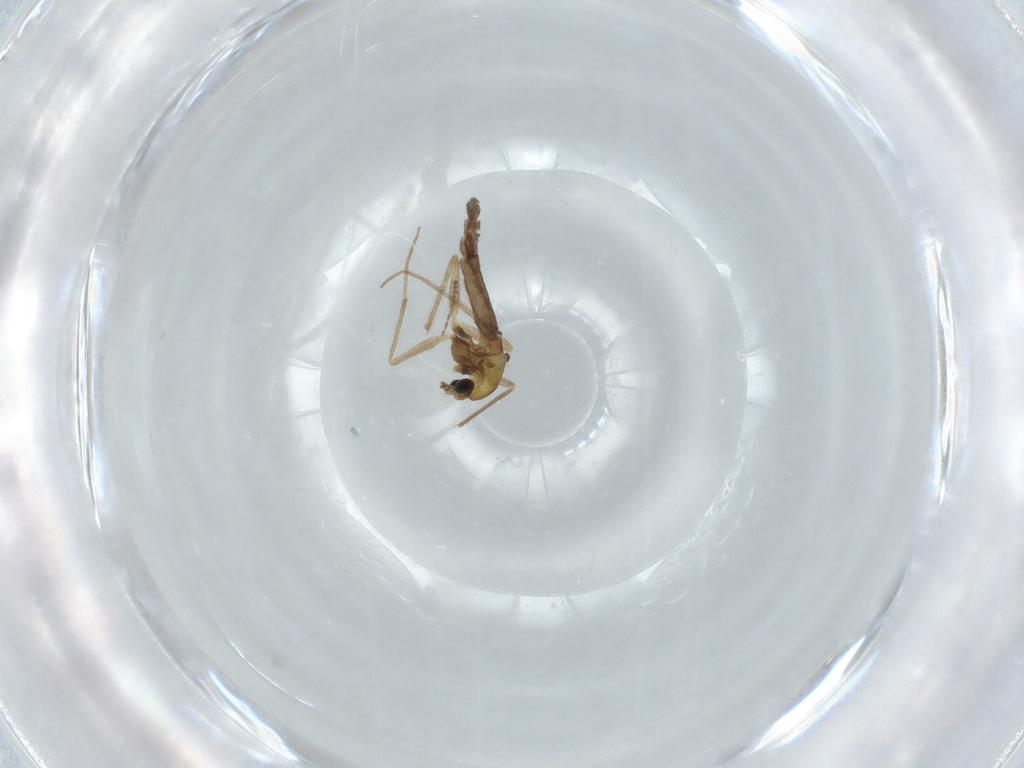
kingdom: Animalia
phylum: Arthropoda
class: Insecta
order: Diptera
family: Chironomidae
